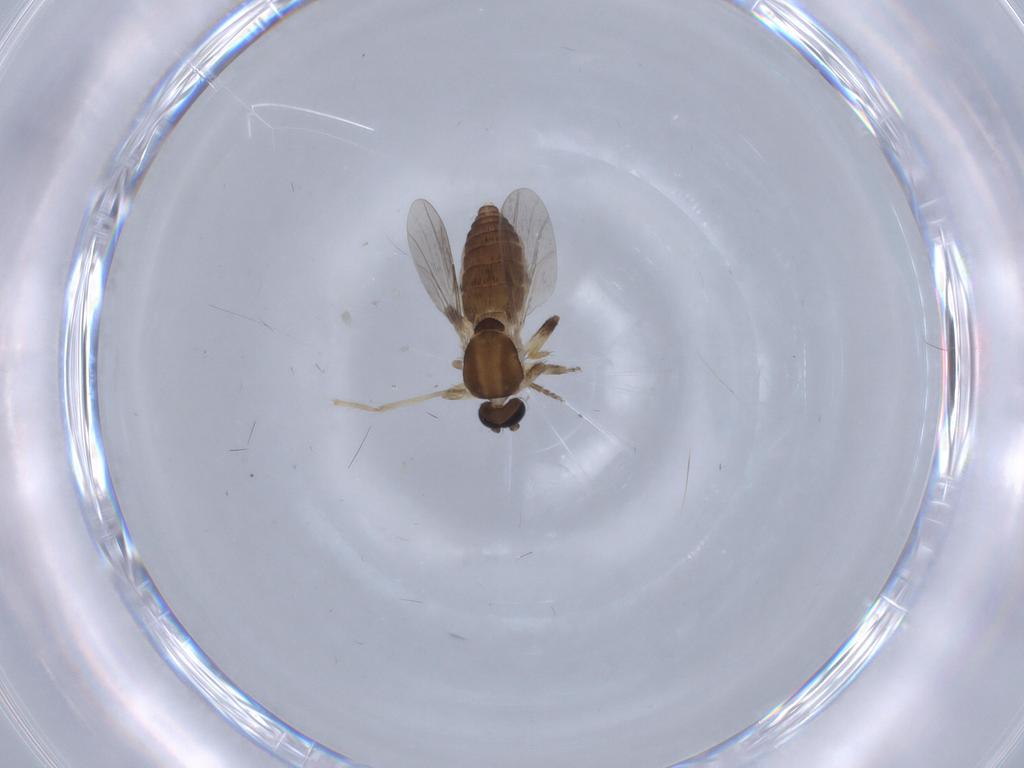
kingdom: Animalia
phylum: Arthropoda
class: Insecta
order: Diptera
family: Ceratopogonidae
